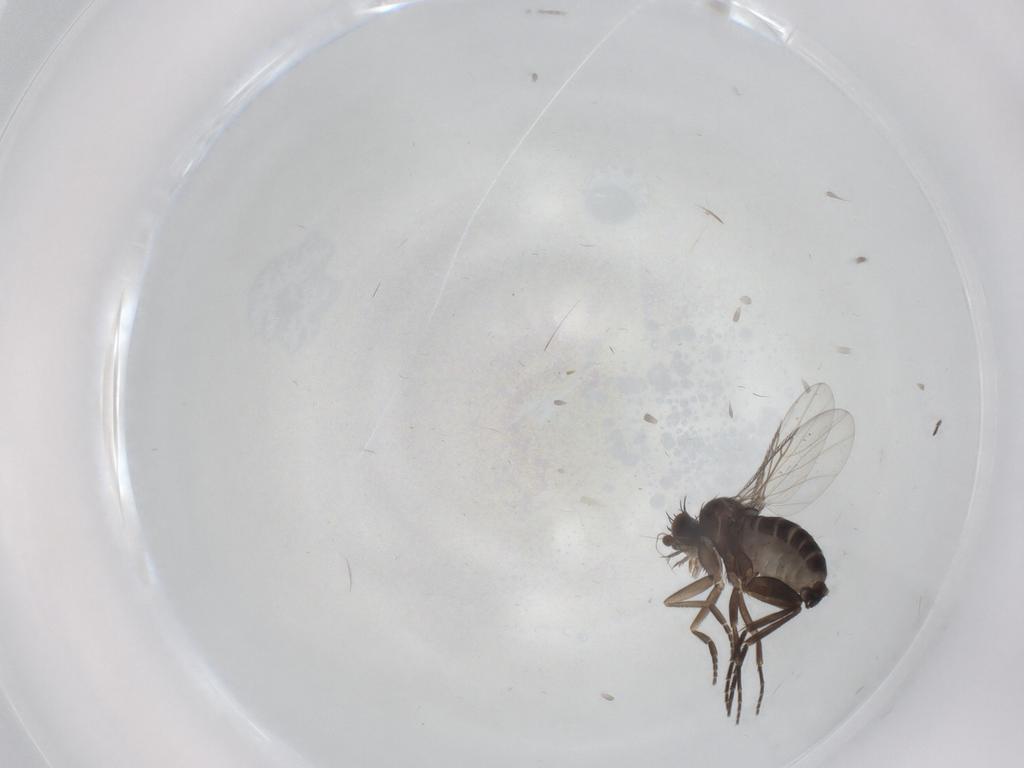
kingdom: Animalia
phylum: Arthropoda
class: Insecta
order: Diptera
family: Cecidomyiidae
